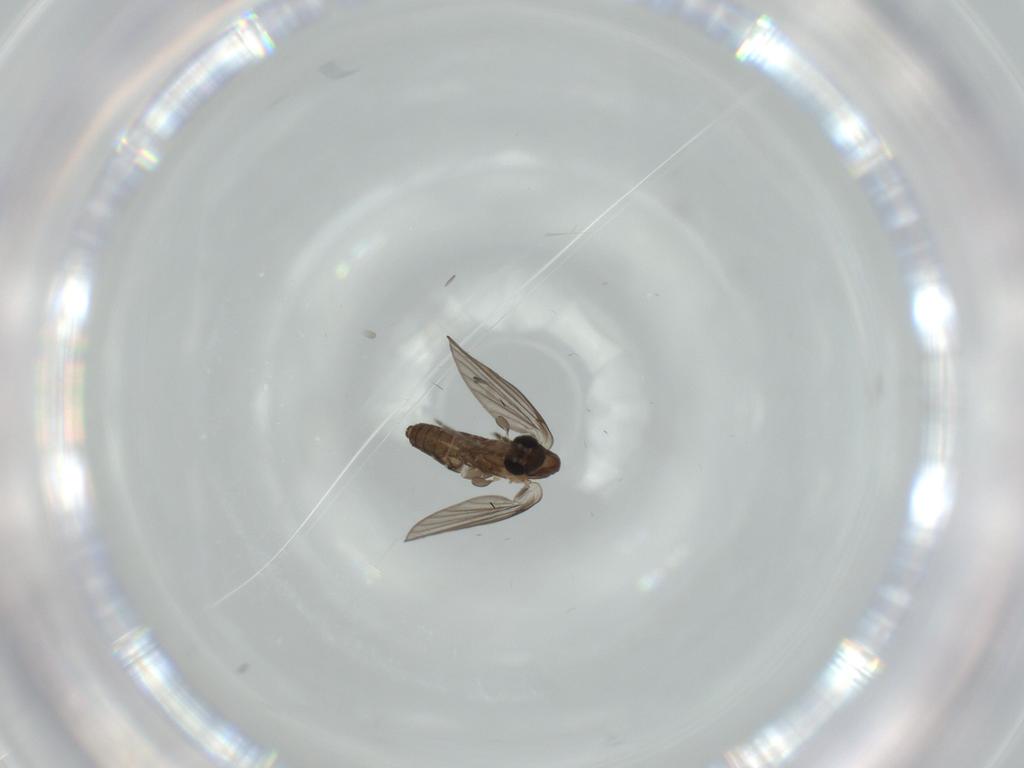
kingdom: Animalia
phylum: Arthropoda
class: Insecta
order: Diptera
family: Psychodidae
